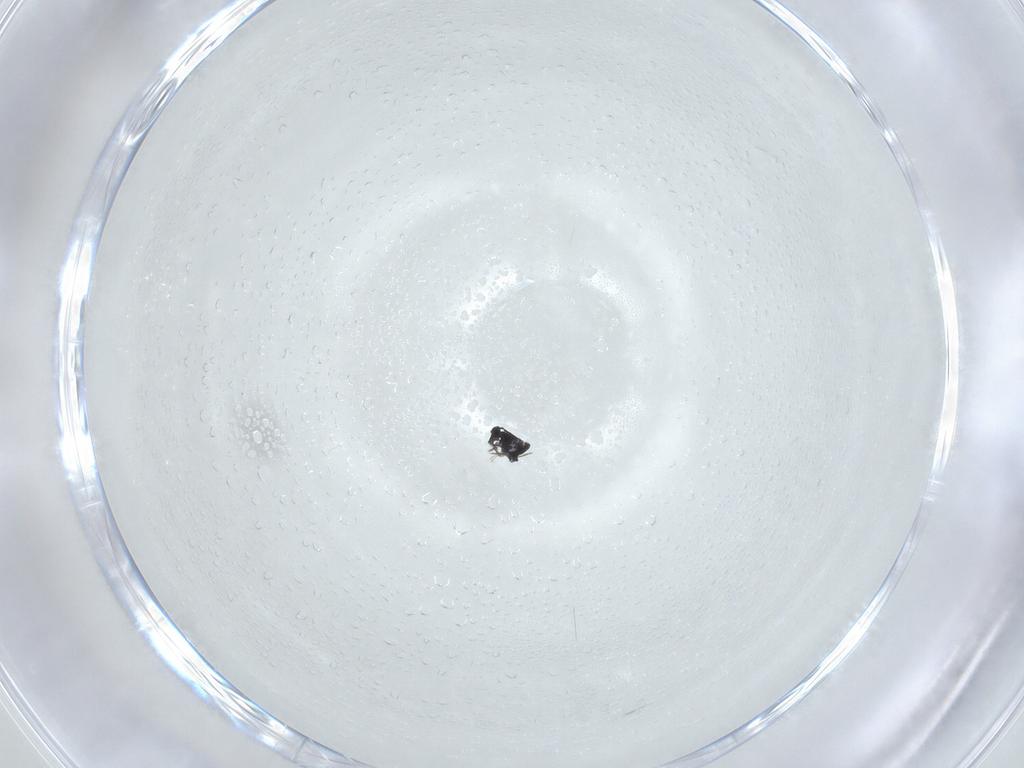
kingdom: Animalia
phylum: Arthropoda
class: Insecta
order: Hymenoptera
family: Formicidae
